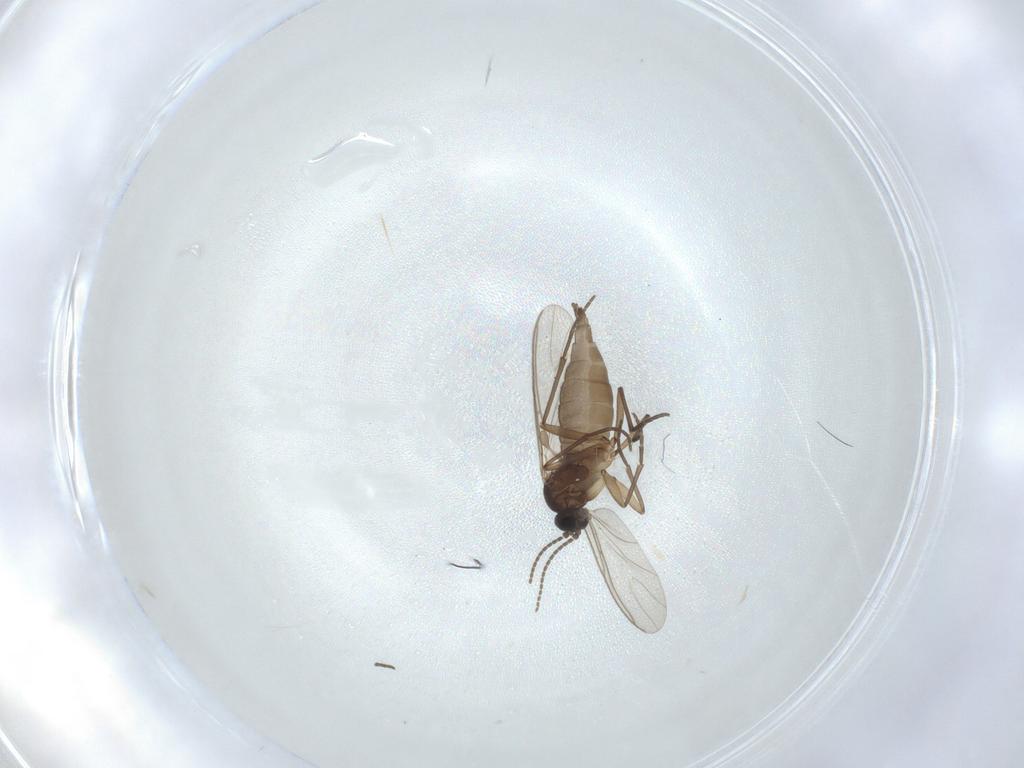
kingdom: Animalia
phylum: Arthropoda
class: Insecta
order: Diptera
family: Sciaridae
